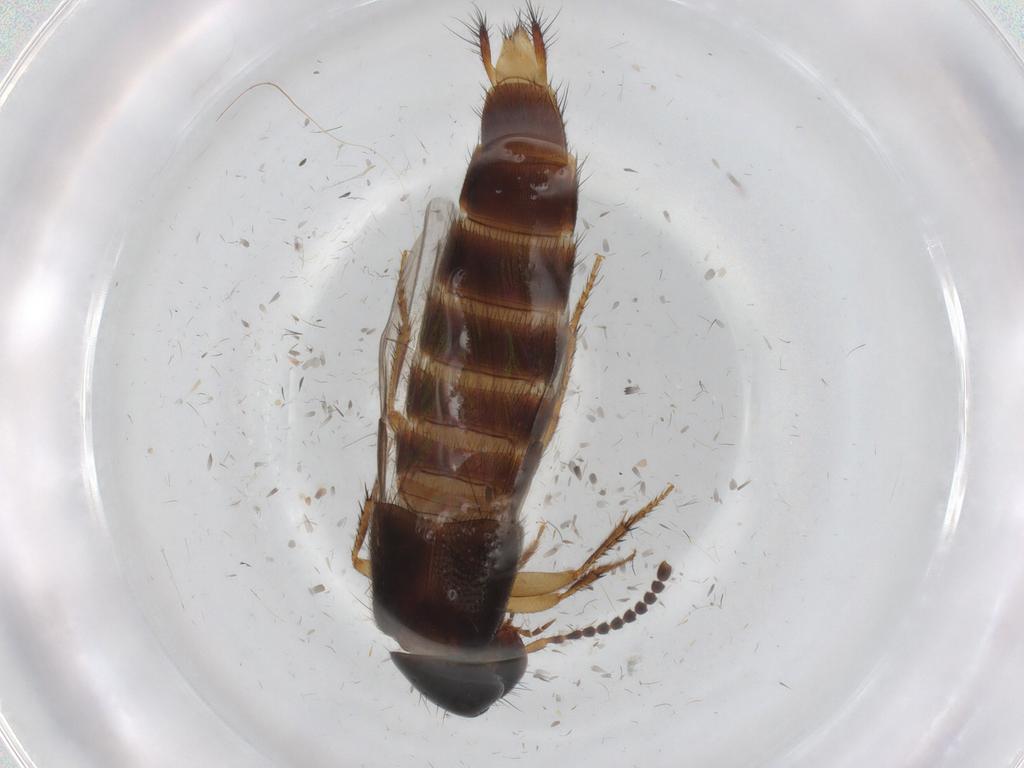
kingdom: Animalia
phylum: Arthropoda
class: Insecta
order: Coleoptera
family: Staphylinidae
